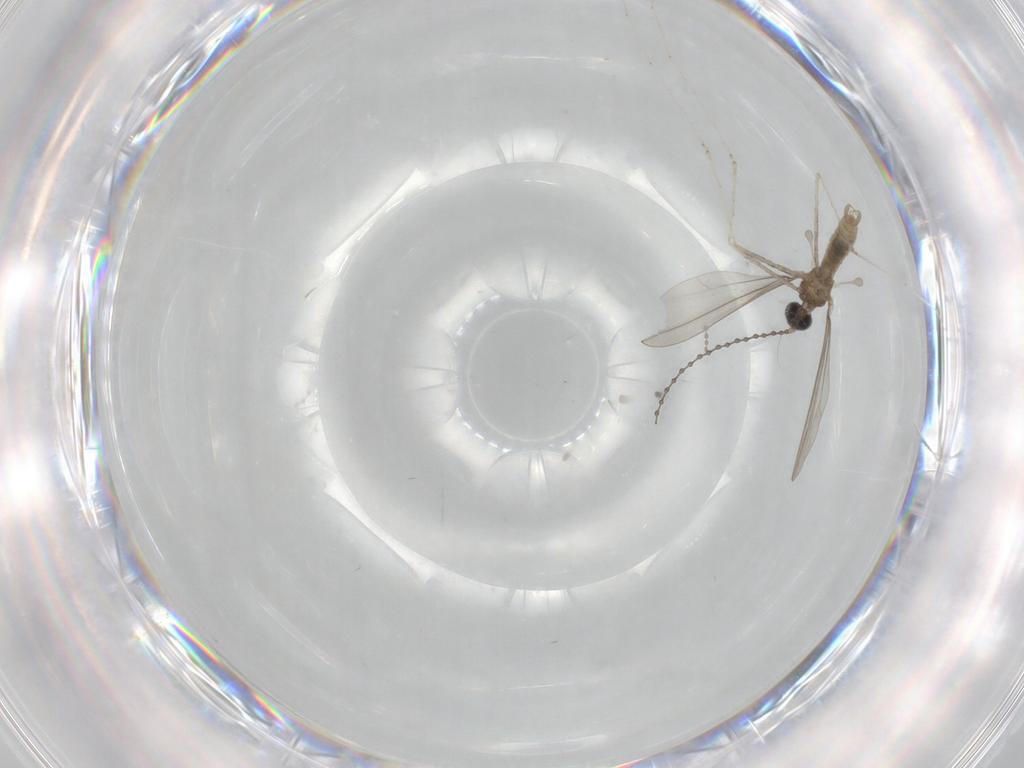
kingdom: Animalia
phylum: Arthropoda
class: Insecta
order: Diptera
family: Cecidomyiidae
